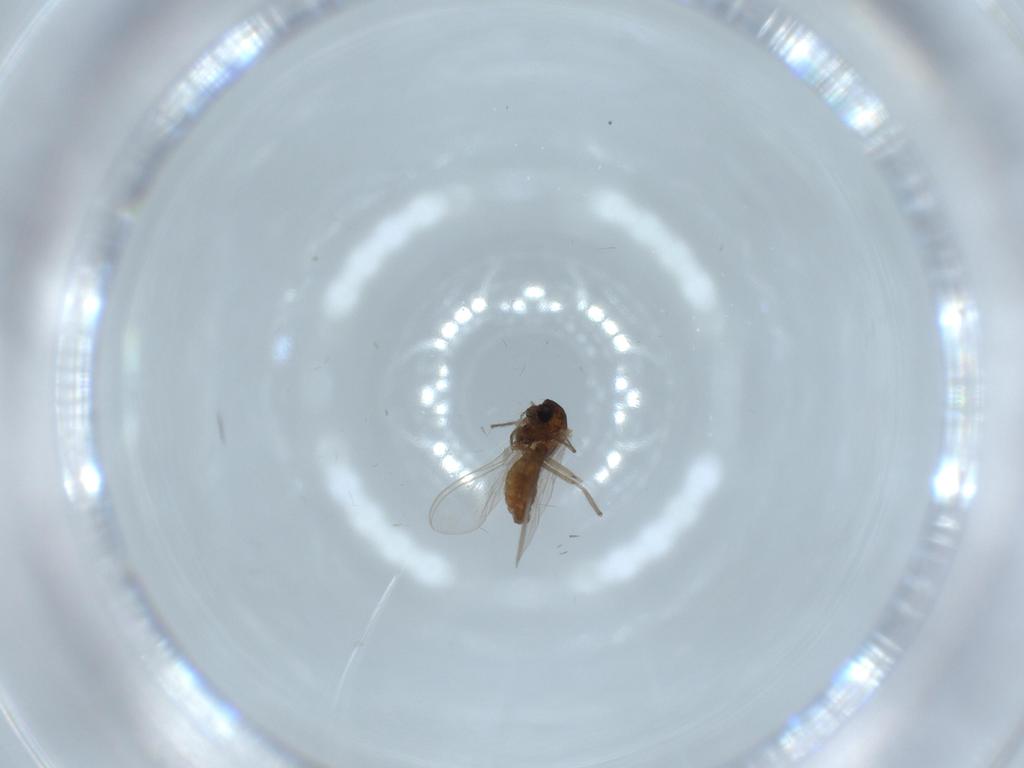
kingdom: Animalia
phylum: Arthropoda
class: Insecta
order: Diptera
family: Chironomidae
